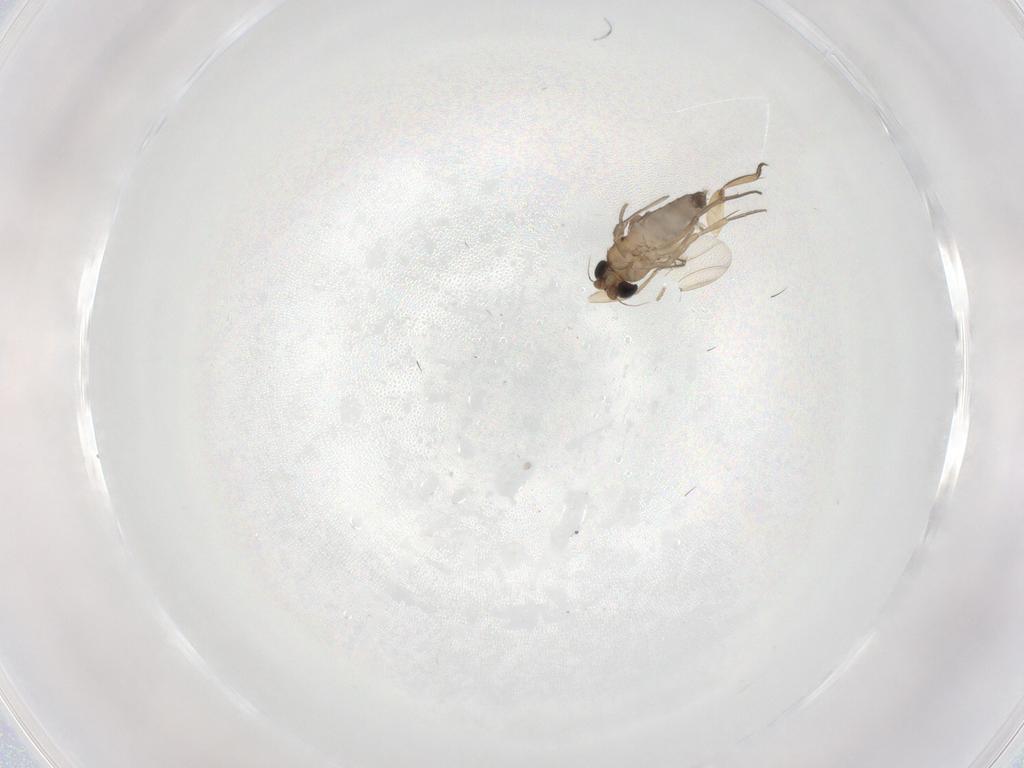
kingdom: Animalia
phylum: Arthropoda
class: Insecta
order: Diptera
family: Phoridae
